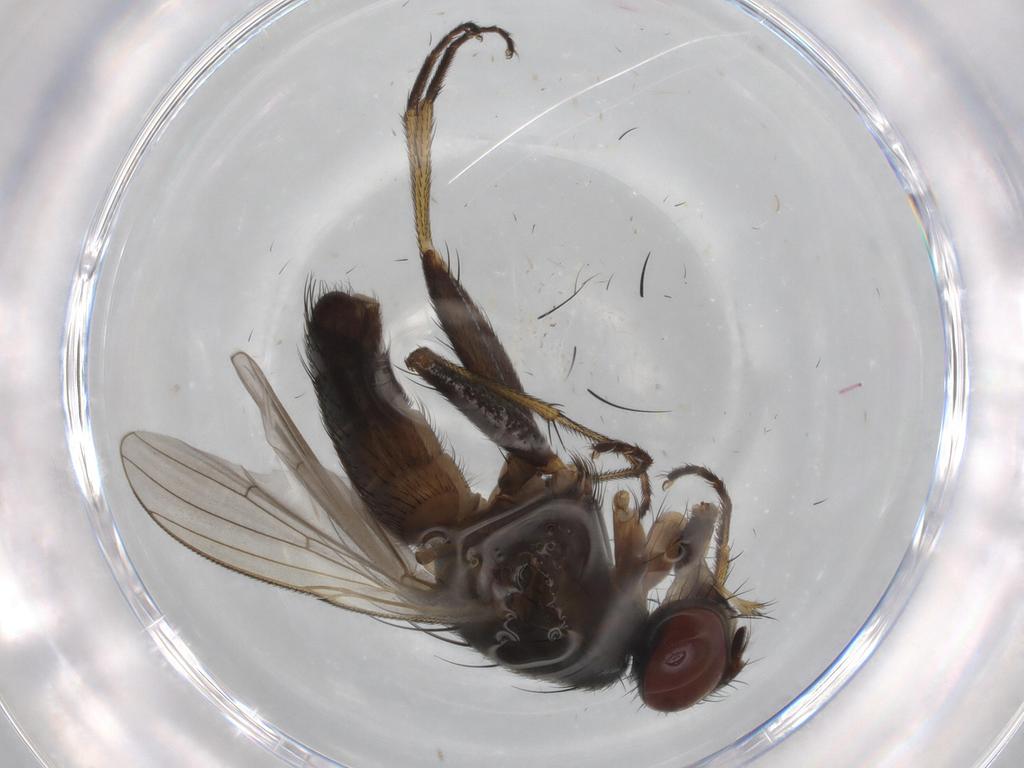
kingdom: Animalia
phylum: Arthropoda
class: Insecta
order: Diptera
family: Muscidae
